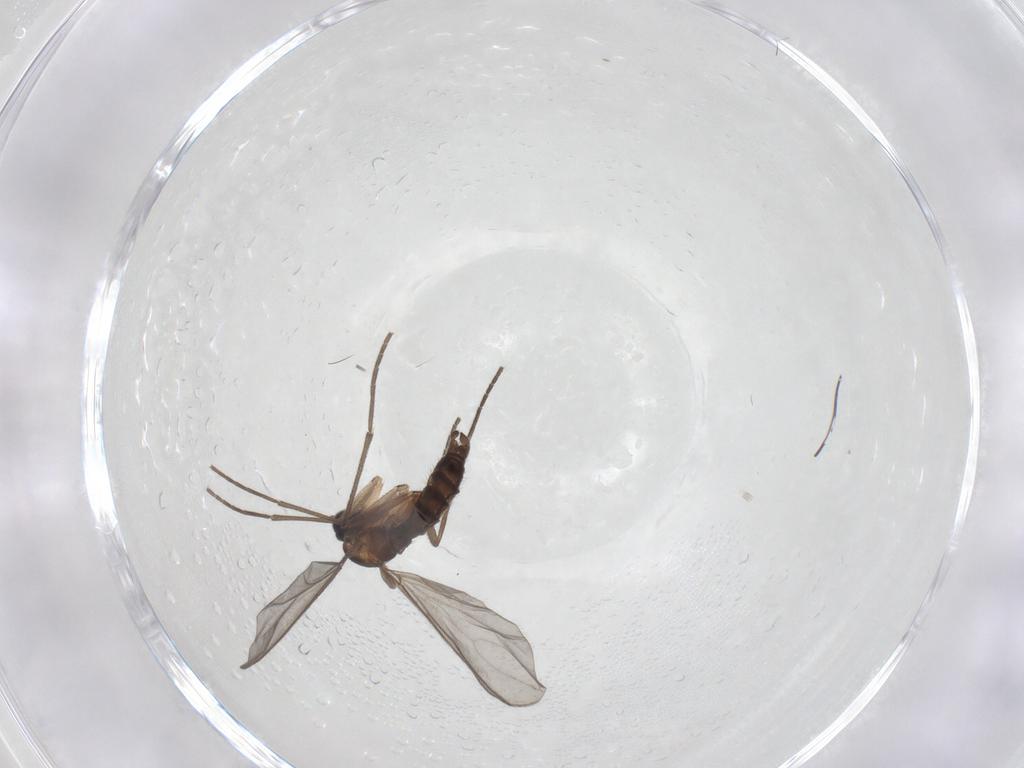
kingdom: Animalia
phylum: Arthropoda
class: Insecta
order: Diptera
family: Sciaridae
